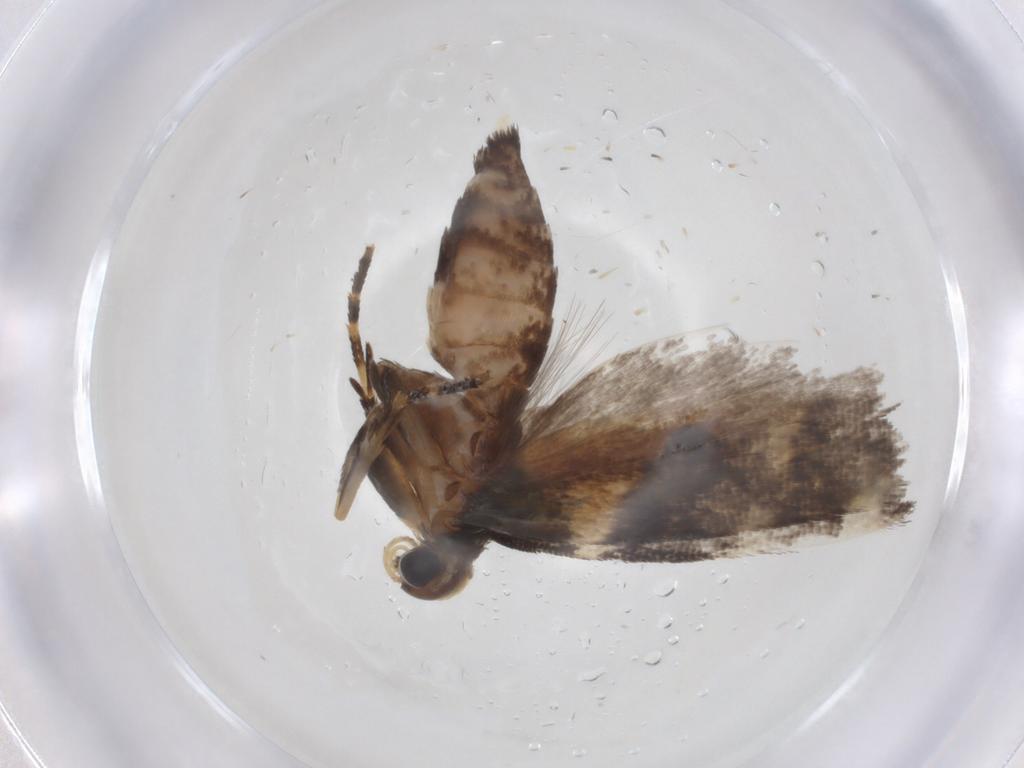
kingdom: Animalia
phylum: Arthropoda
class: Insecta
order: Lepidoptera
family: Gelechiidae
